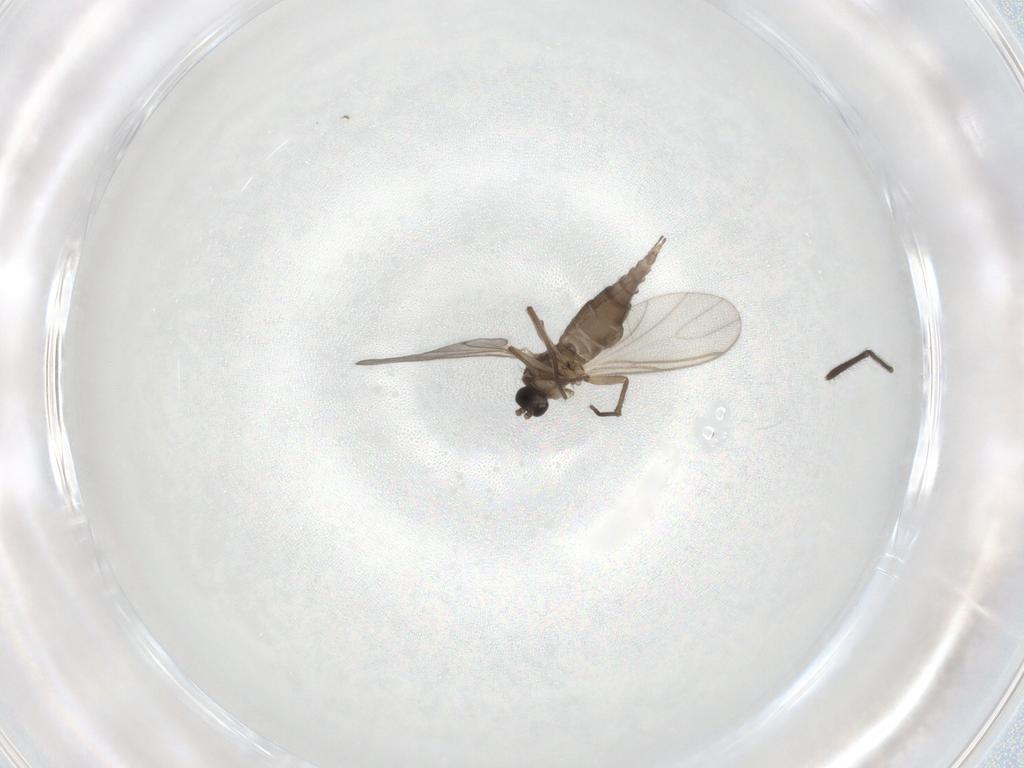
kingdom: Animalia
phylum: Arthropoda
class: Insecta
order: Diptera
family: Sciaridae
